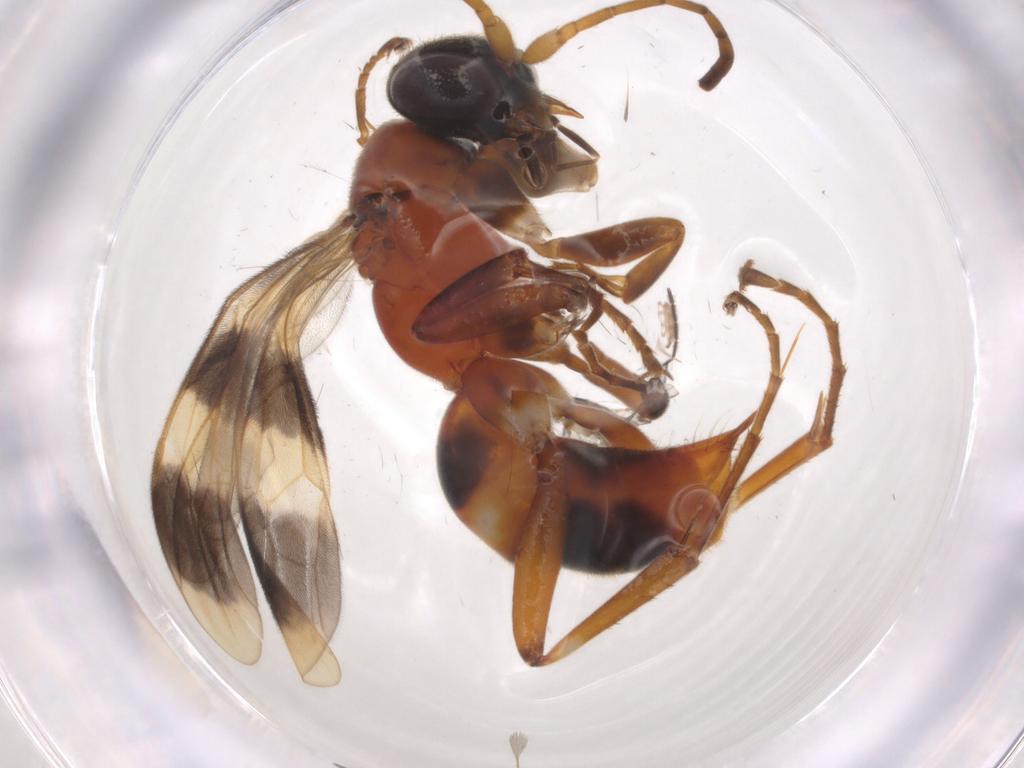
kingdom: Animalia
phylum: Arthropoda
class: Insecta
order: Hymenoptera
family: Pompilidae
